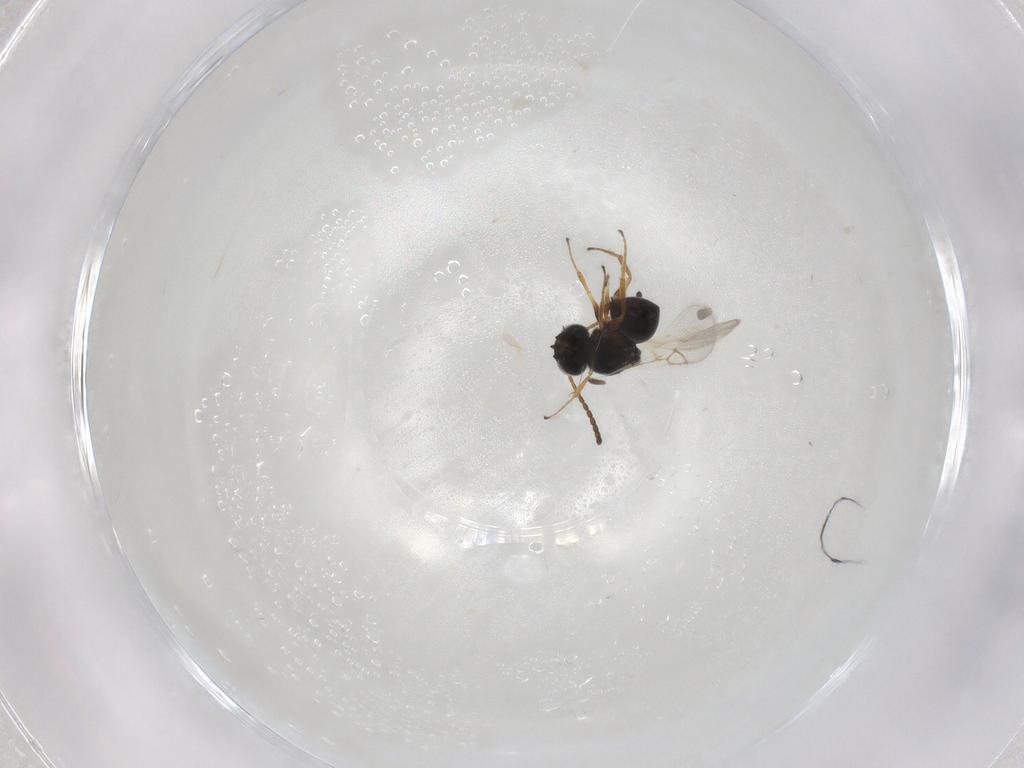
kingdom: Animalia
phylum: Arthropoda
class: Insecta
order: Hymenoptera
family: Figitidae
